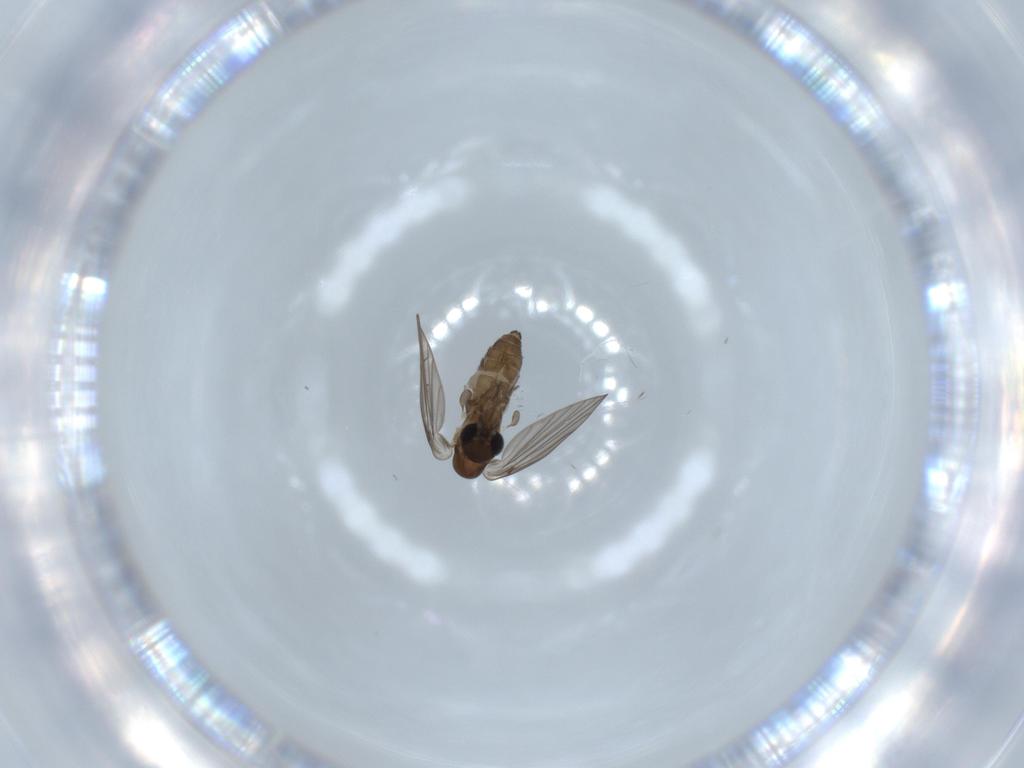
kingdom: Animalia
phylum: Arthropoda
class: Insecta
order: Diptera
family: Psychodidae
